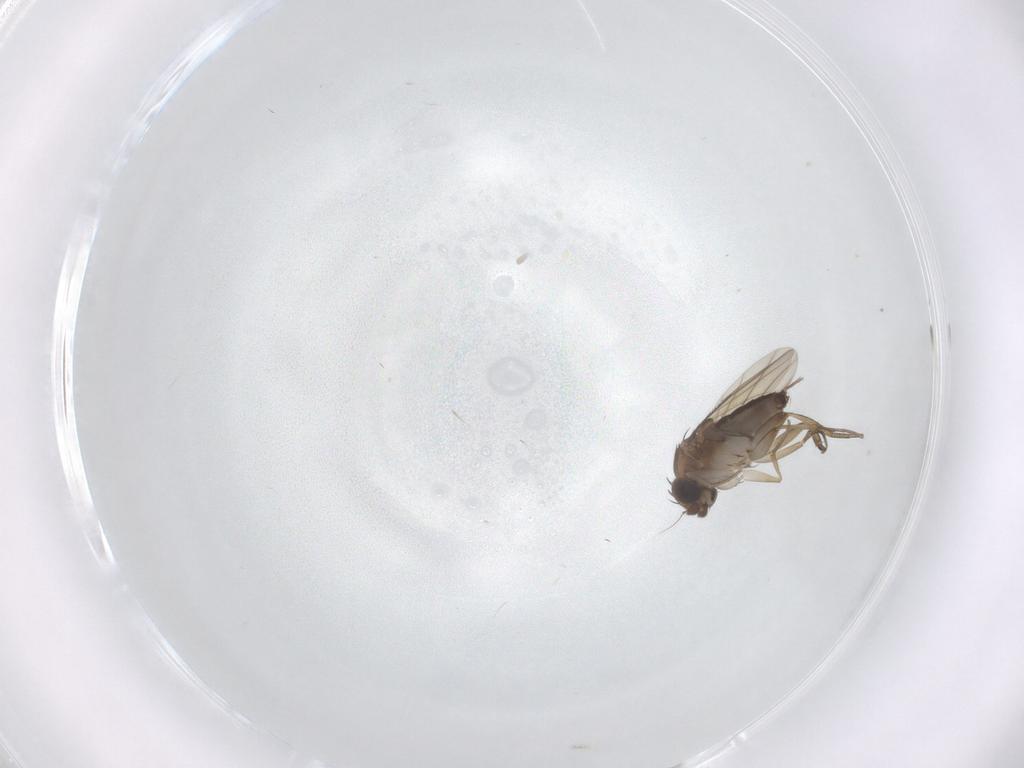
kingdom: Animalia
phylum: Arthropoda
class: Insecta
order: Diptera
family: Phoridae
